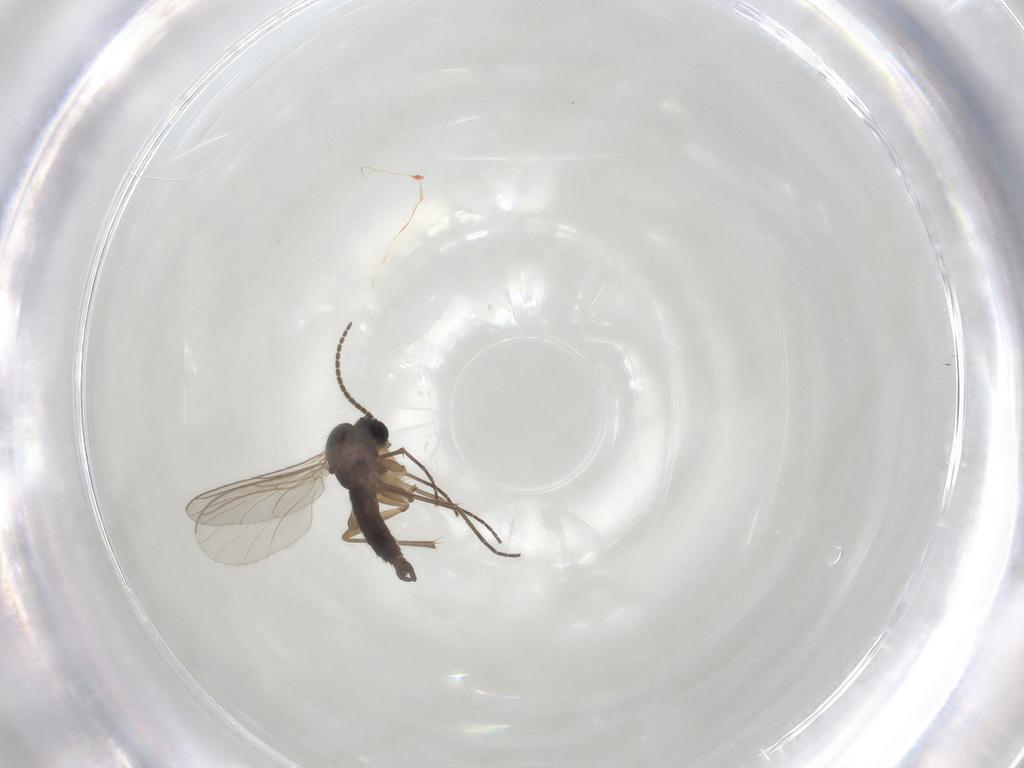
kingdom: Animalia
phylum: Arthropoda
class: Insecta
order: Diptera
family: Sciaridae
